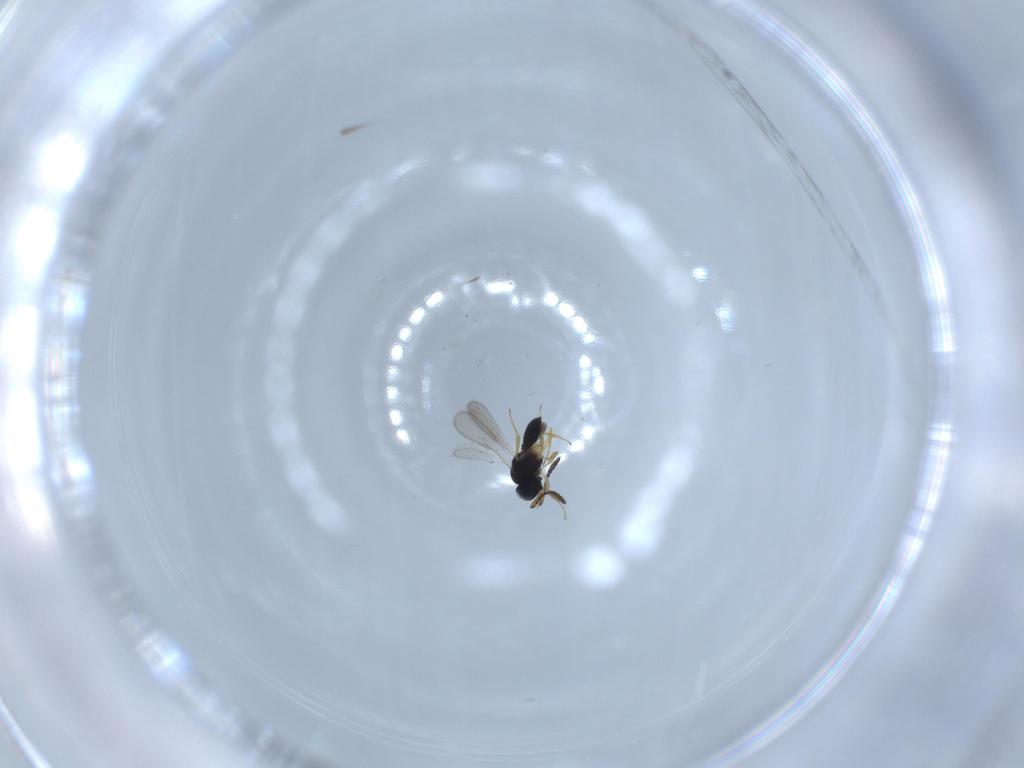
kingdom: Animalia
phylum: Arthropoda
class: Insecta
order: Hymenoptera
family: Scelionidae
